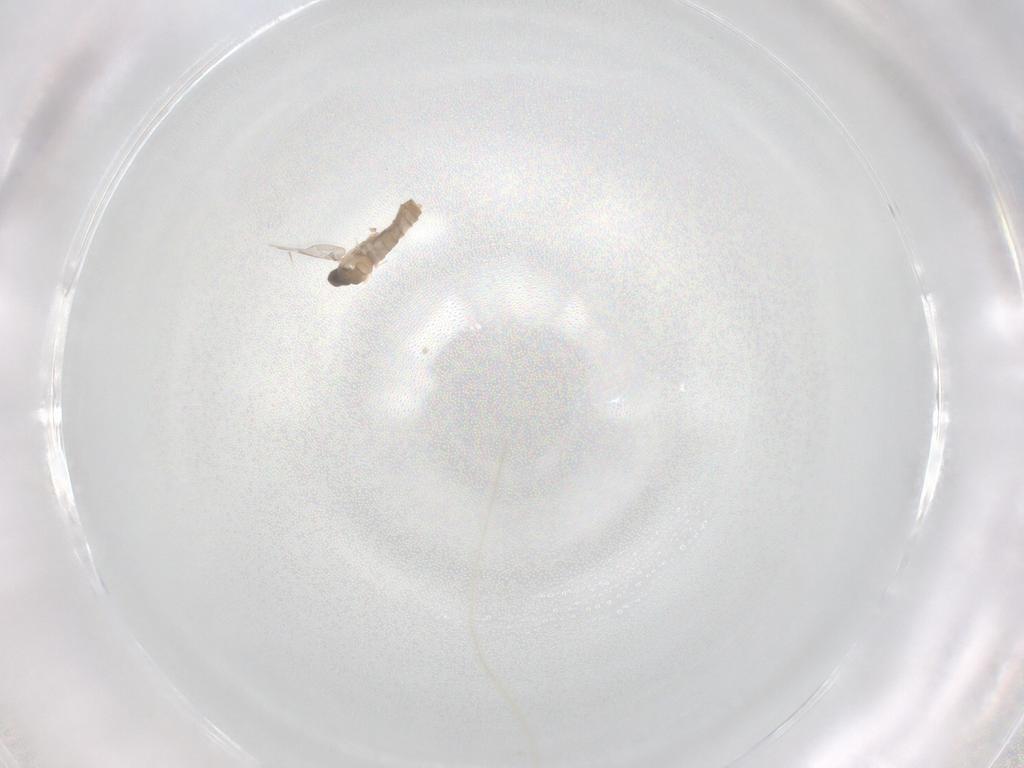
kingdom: Animalia
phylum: Arthropoda
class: Insecta
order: Diptera
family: Cecidomyiidae
